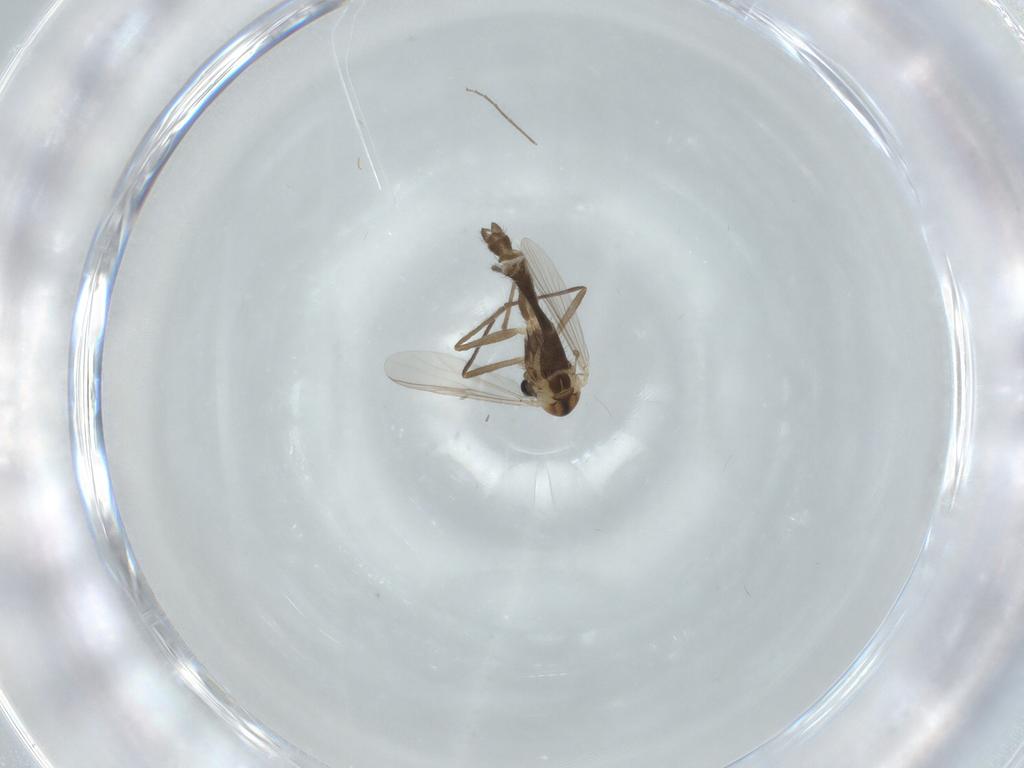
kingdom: Animalia
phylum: Arthropoda
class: Insecta
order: Diptera
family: Chironomidae
